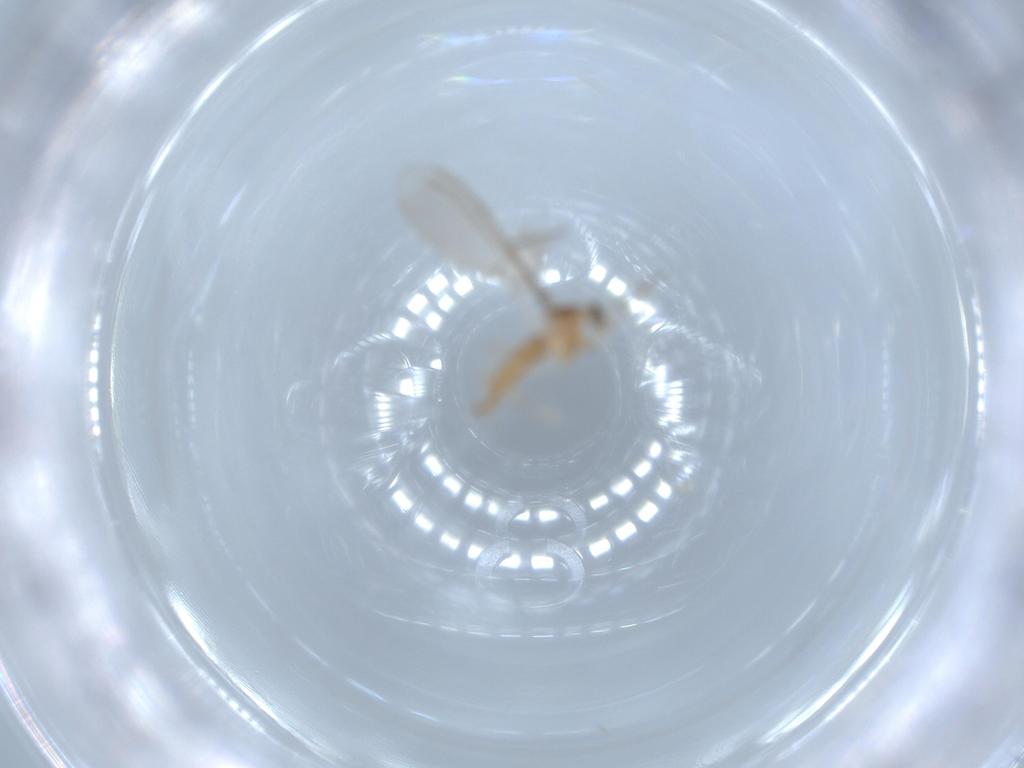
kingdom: Animalia
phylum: Arthropoda
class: Insecta
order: Diptera
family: Cecidomyiidae
